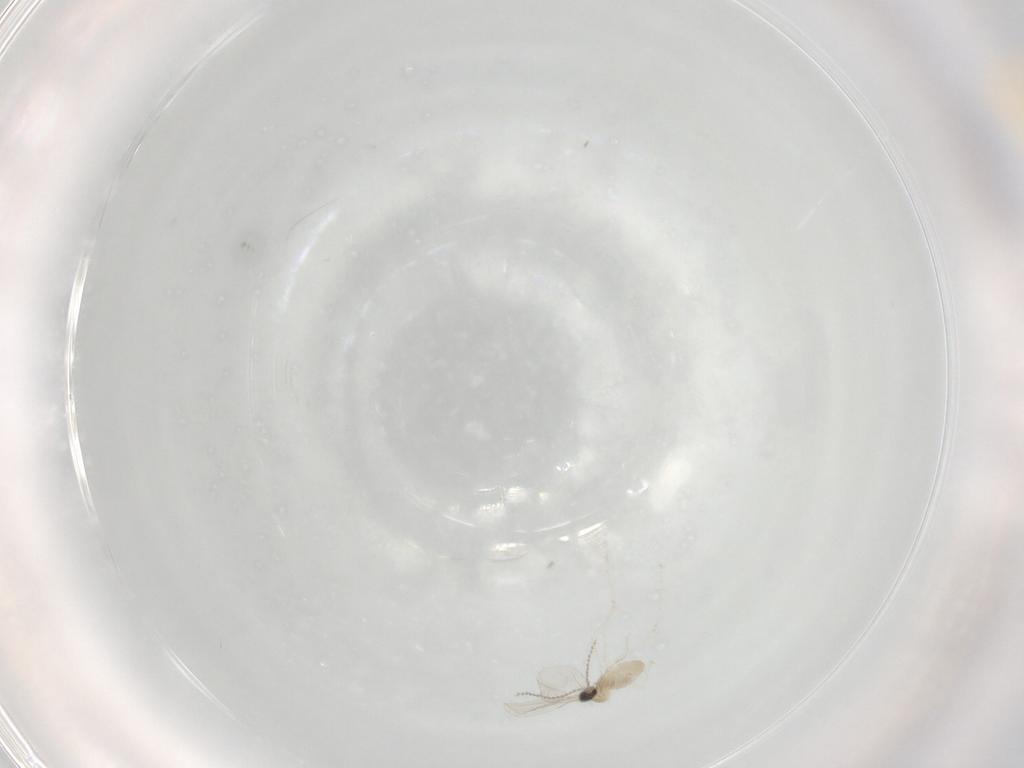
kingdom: Animalia
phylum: Arthropoda
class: Insecta
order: Diptera
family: Cecidomyiidae
